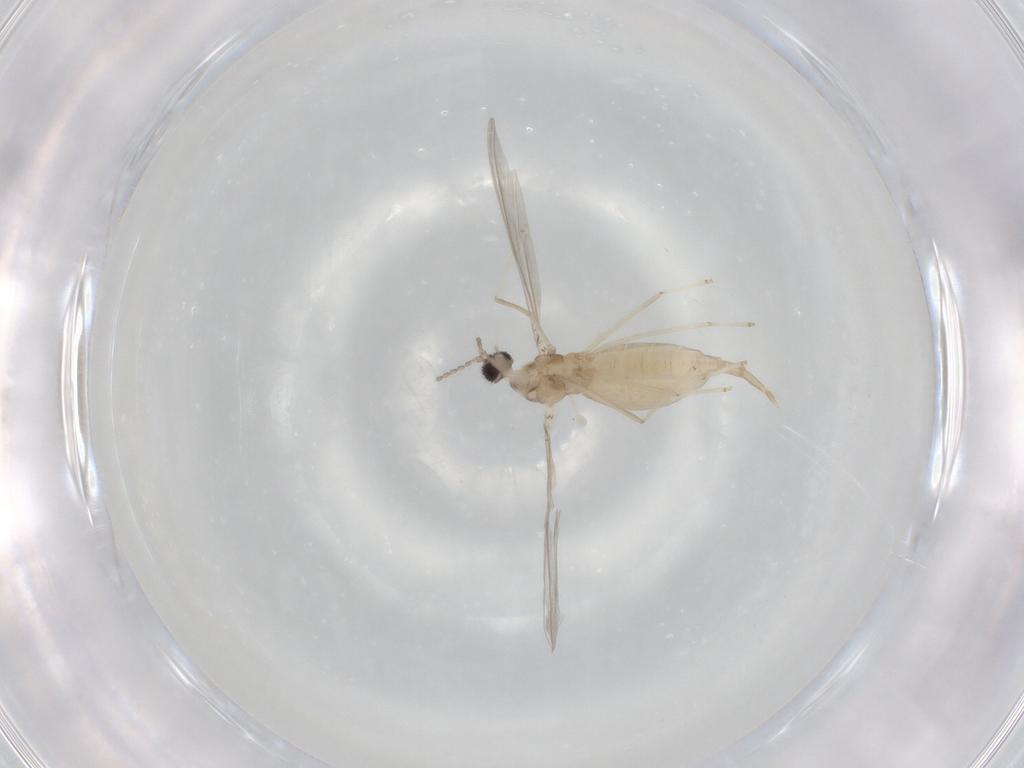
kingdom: Animalia
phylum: Arthropoda
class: Insecta
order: Diptera
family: Cecidomyiidae
